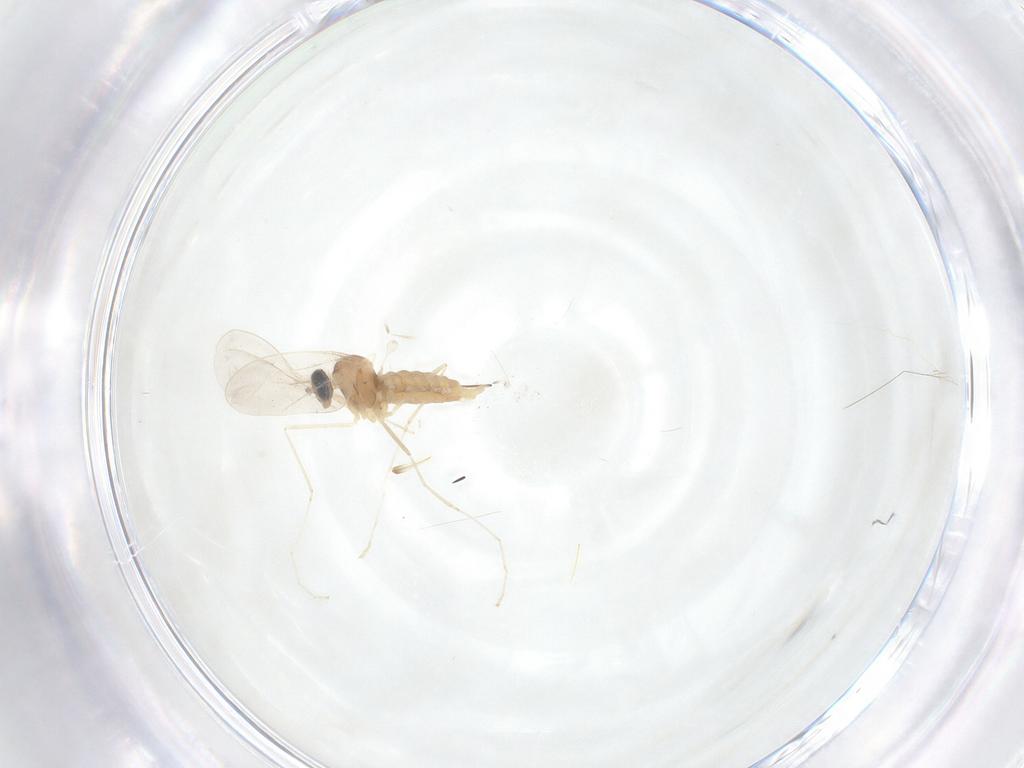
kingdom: Animalia
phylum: Arthropoda
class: Insecta
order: Diptera
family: Cecidomyiidae
